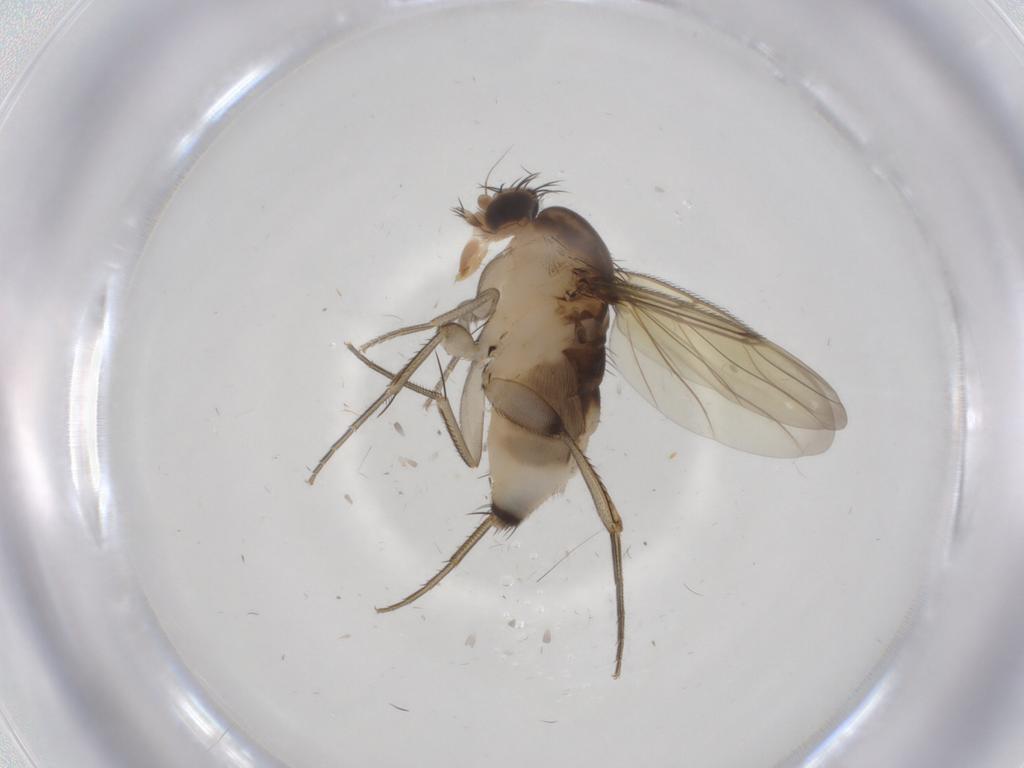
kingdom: Animalia
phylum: Arthropoda
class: Insecta
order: Diptera
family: Phoridae
